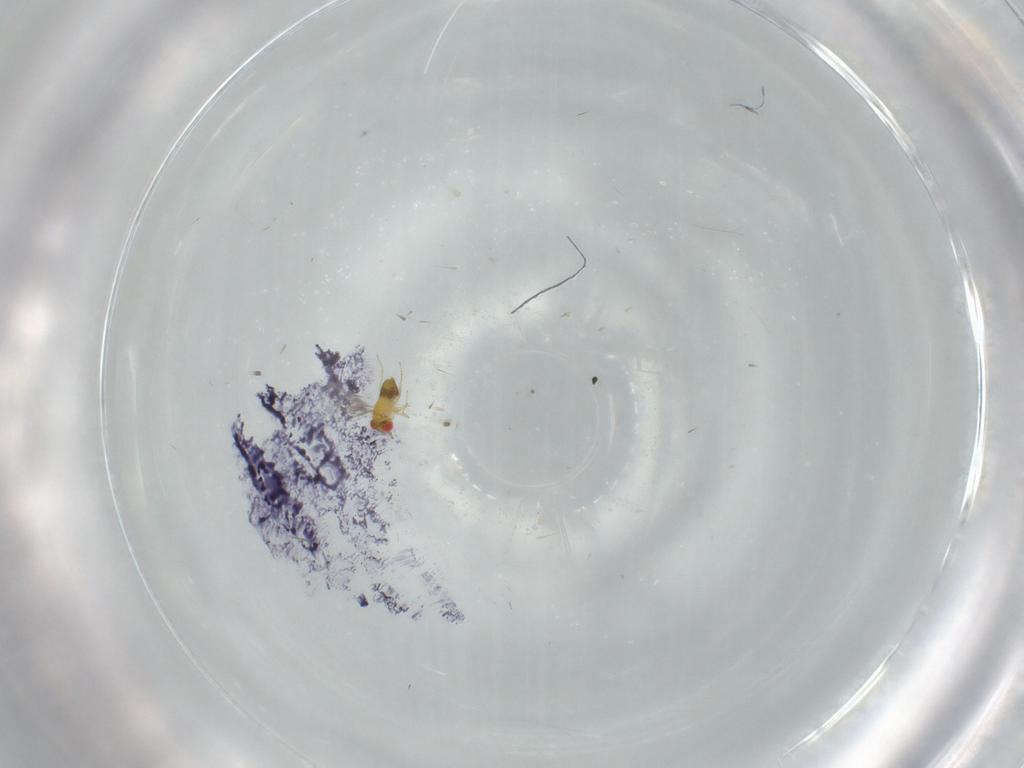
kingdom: Animalia
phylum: Arthropoda
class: Insecta
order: Hymenoptera
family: Trichogrammatidae
